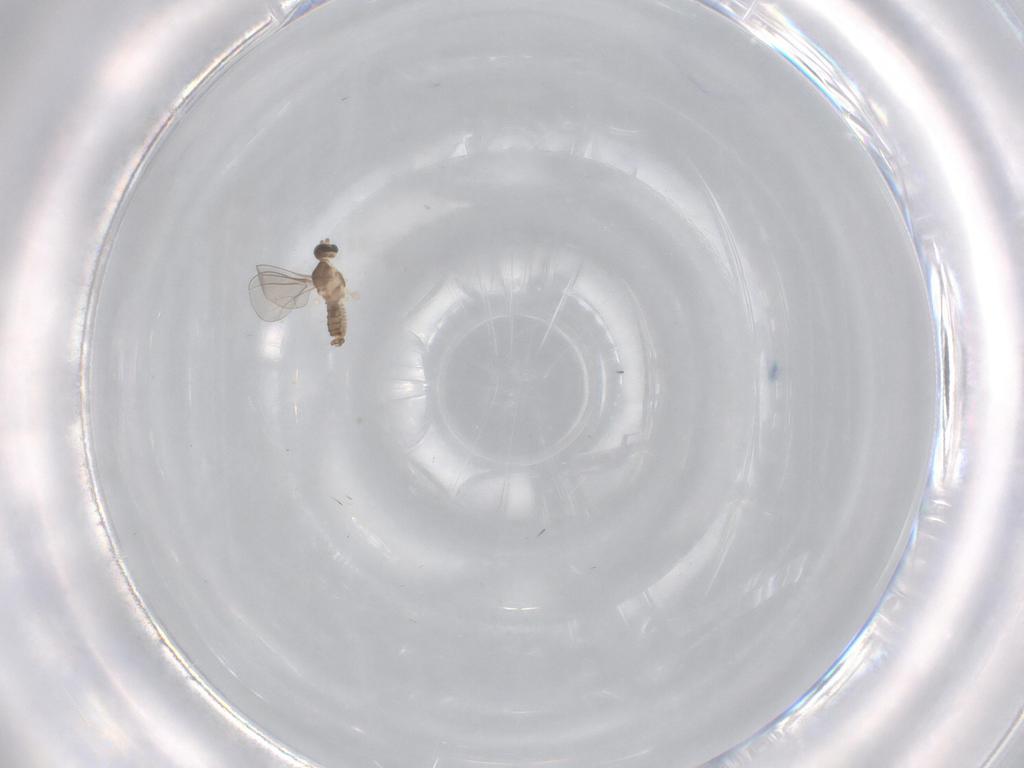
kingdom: Animalia
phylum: Arthropoda
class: Insecta
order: Diptera
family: Cecidomyiidae
